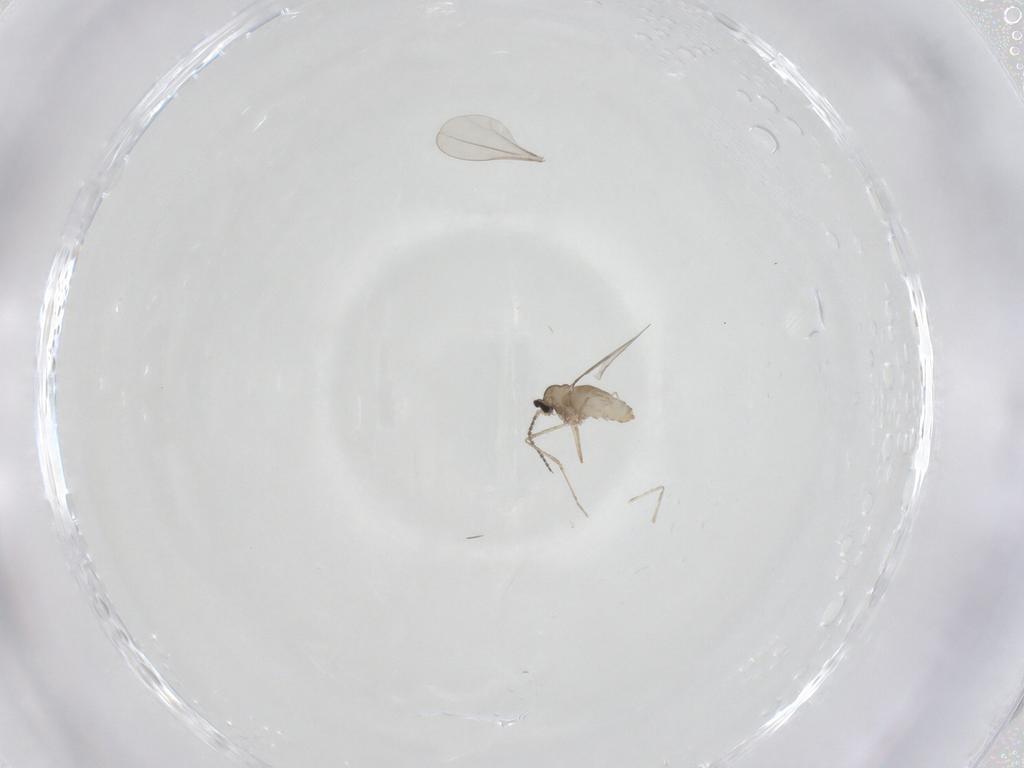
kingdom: Animalia
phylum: Arthropoda
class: Insecta
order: Diptera
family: Cecidomyiidae
